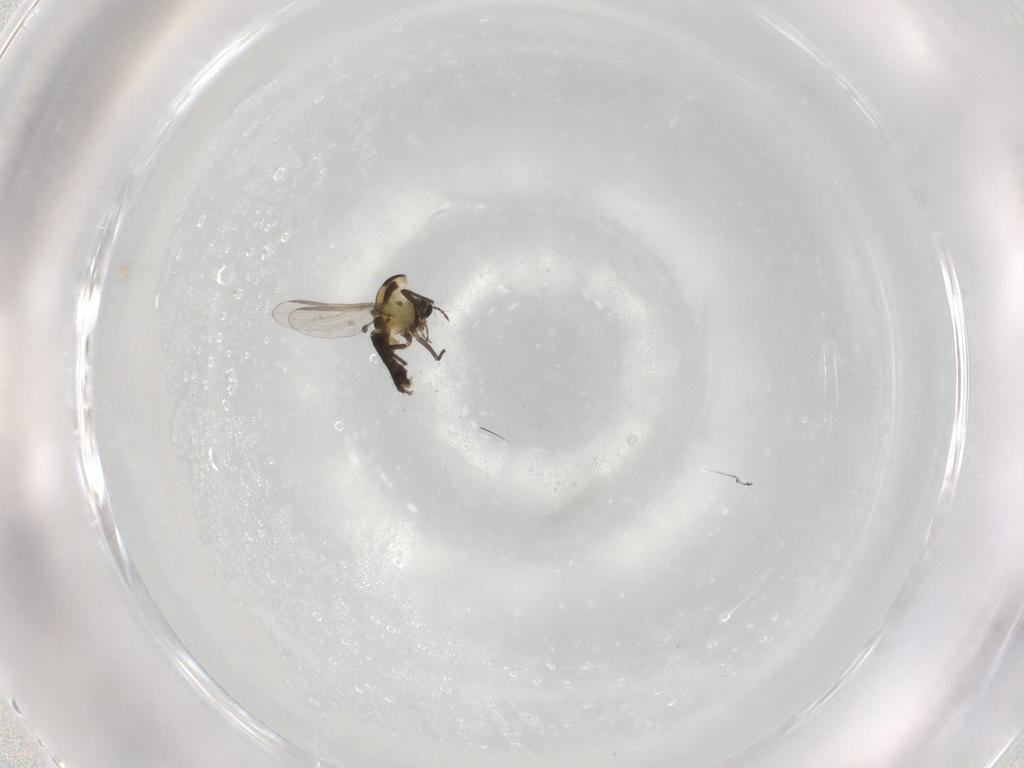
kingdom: Animalia
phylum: Arthropoda
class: Insecta
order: Diptera
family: Chironomidae
